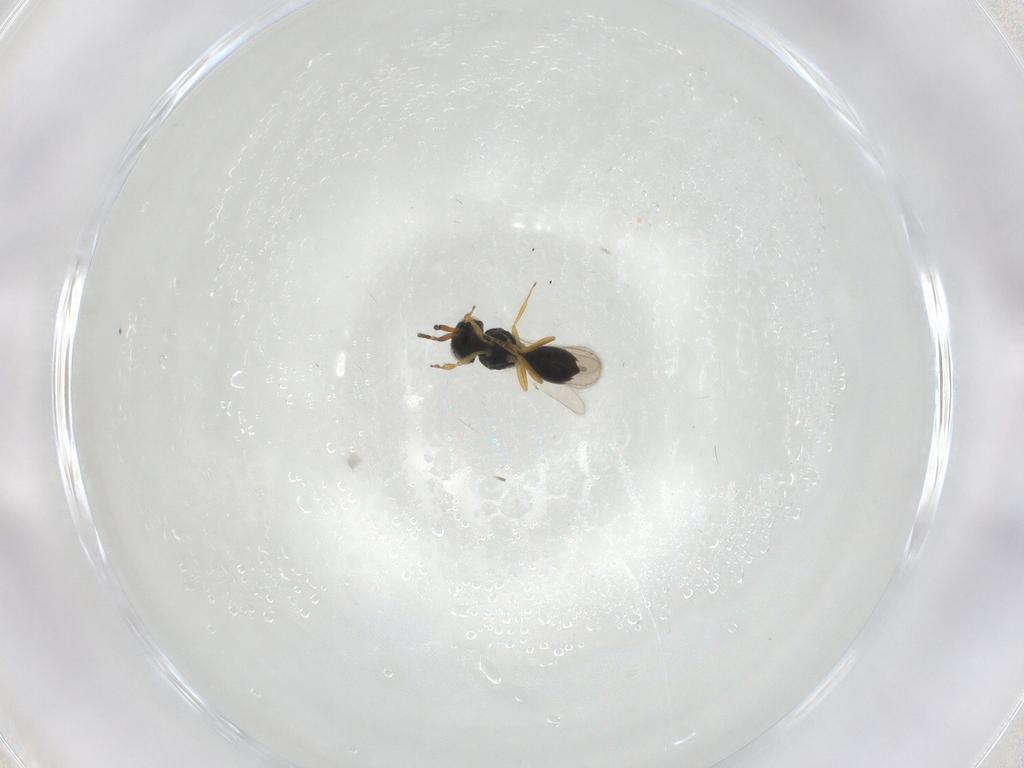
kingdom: Animalia
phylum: Arthropoda
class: Insecta
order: Hymenoptera
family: Scelionidae
